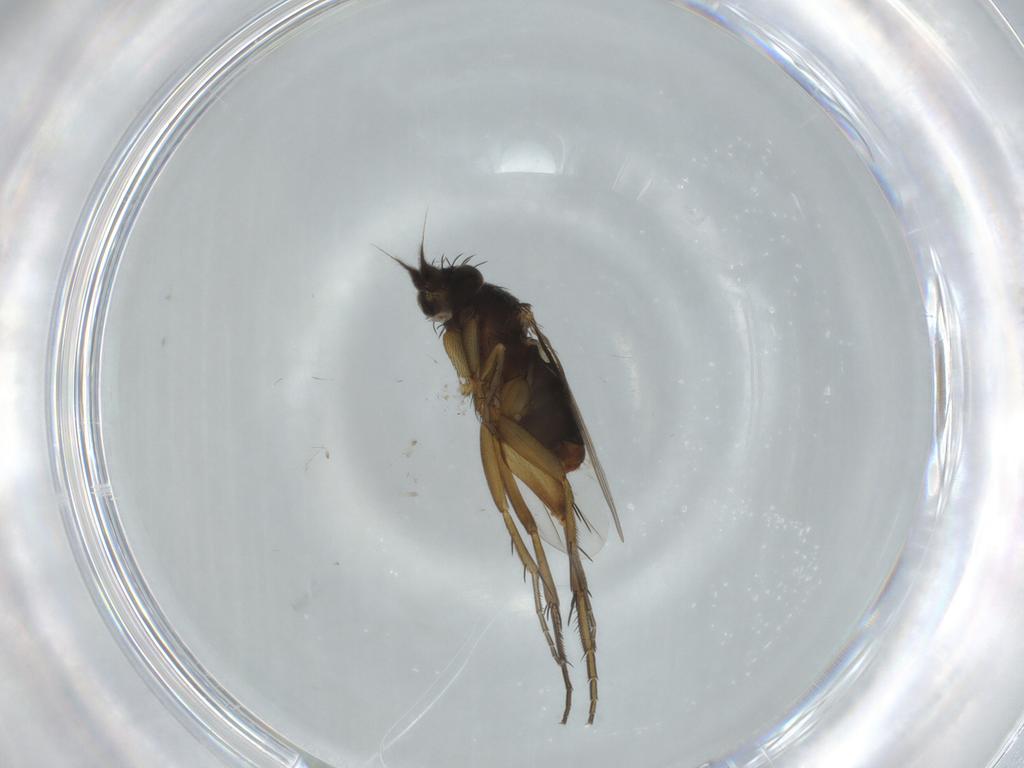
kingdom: Animalia
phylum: Arthropoda
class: Insecta
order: Diptera
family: Phoridae
